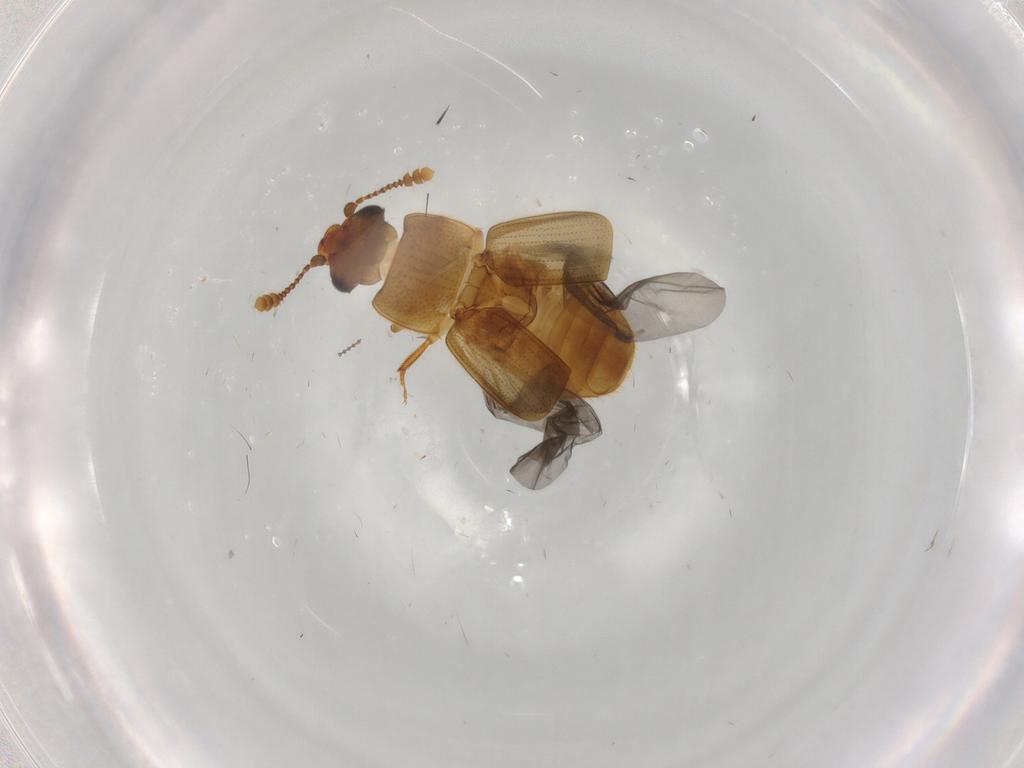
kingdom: Animalia
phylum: Arthropoda
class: Insecta
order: Coleoptera
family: Nitidulidae
